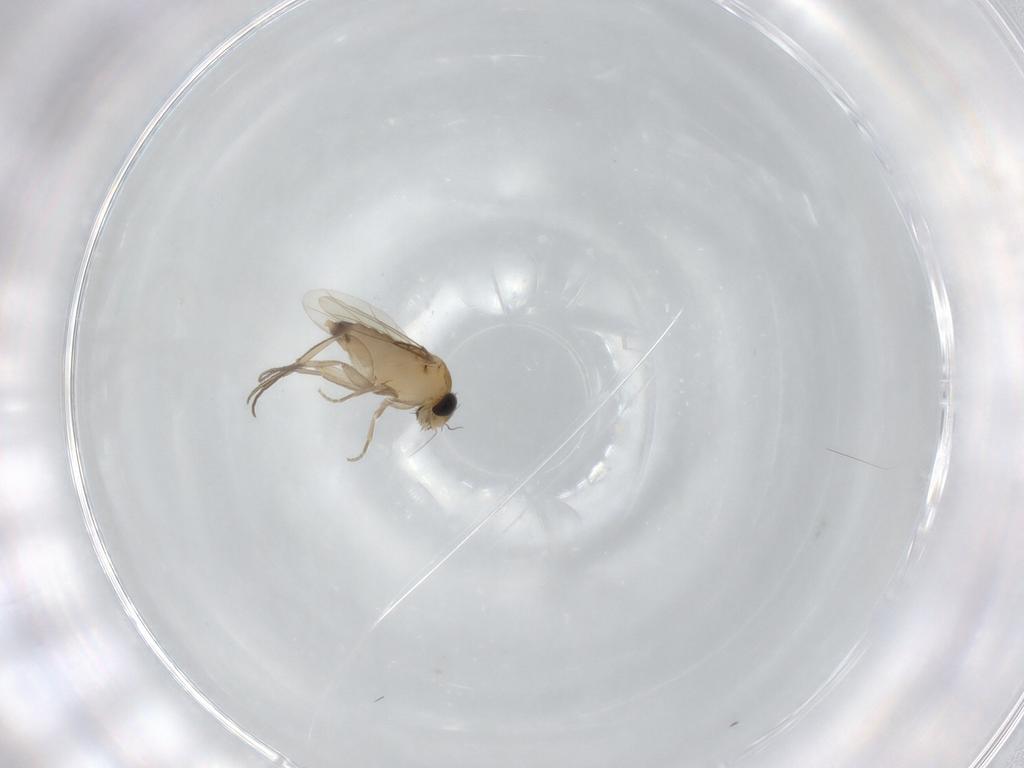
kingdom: Animalia
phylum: Arthropoda
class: Insecta
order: Diptera
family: Phoridae
